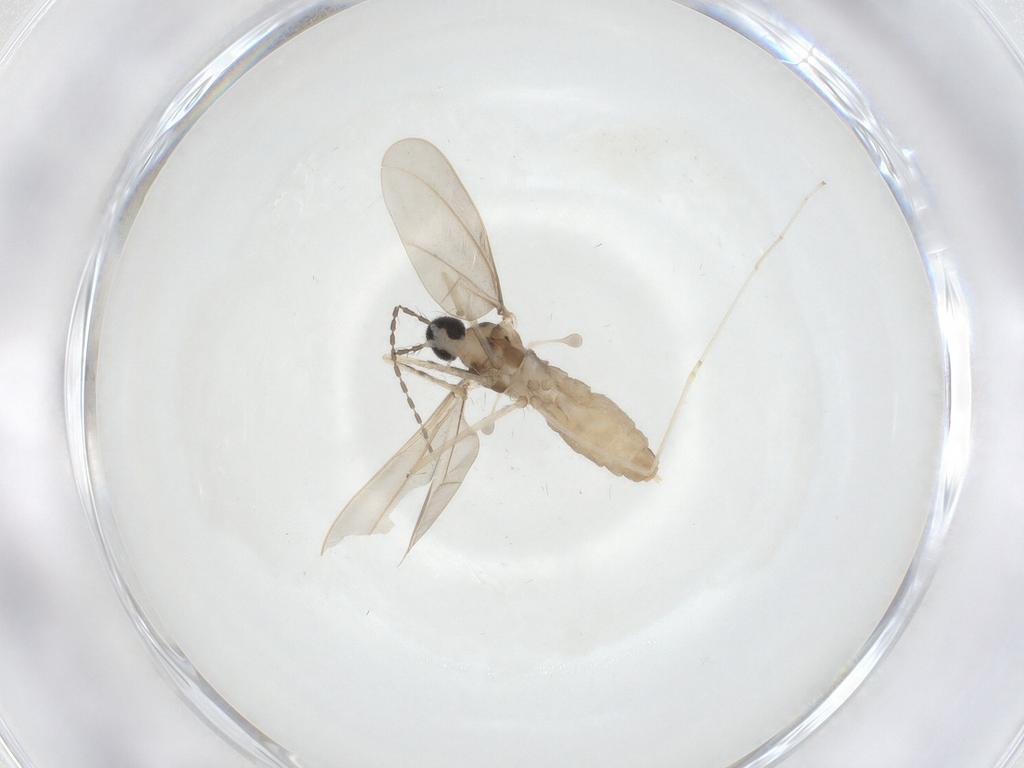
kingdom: Animalia
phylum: Arthropoda
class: Insecta
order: Diptera
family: Cecidomyiidae
